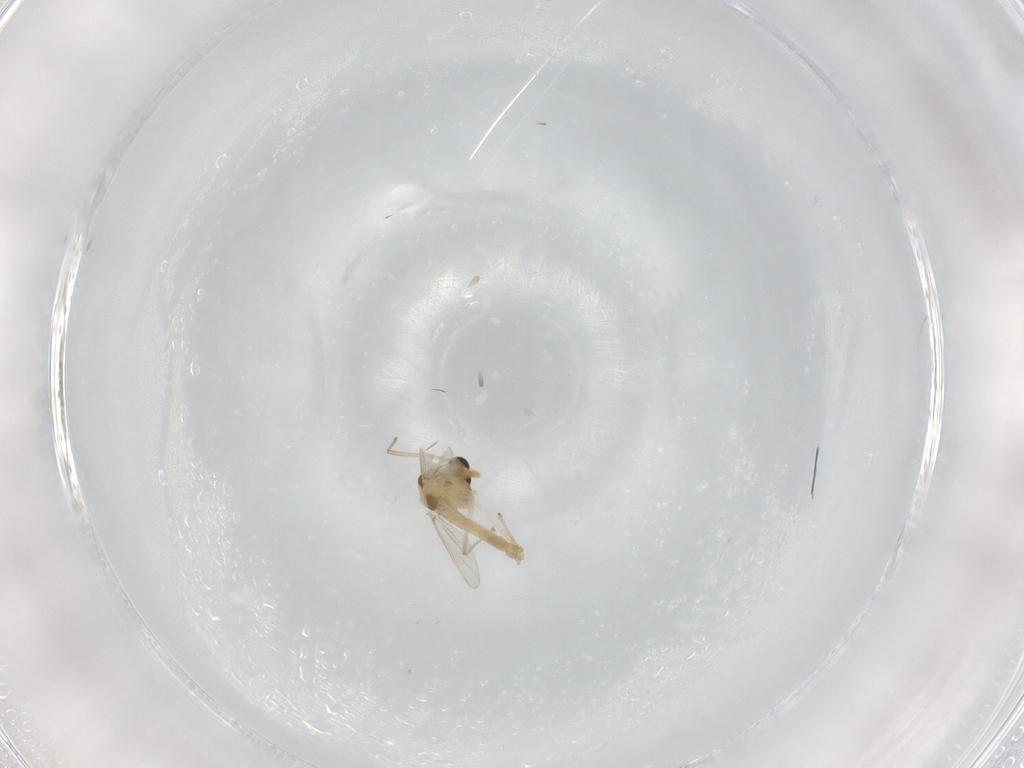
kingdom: Animalia
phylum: Arthropoda
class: Insecta
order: Diptera
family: Chironomidae
